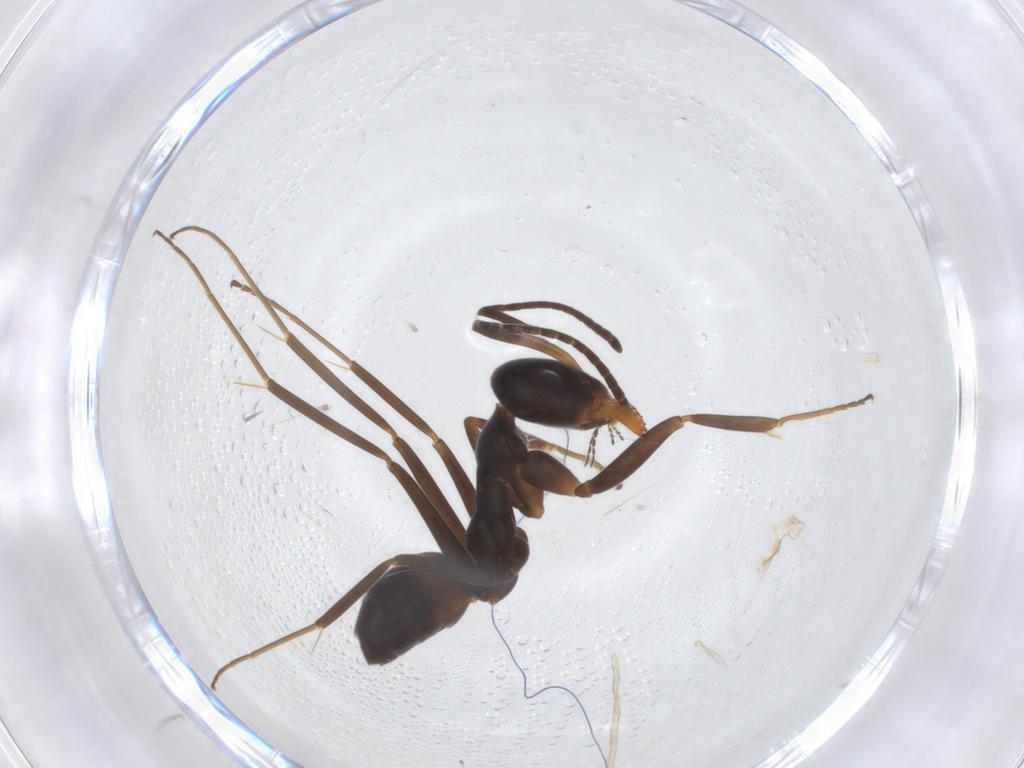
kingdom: Animalia
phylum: Arthropoda
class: Insecta
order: Hymenoptera
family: Formicidae
